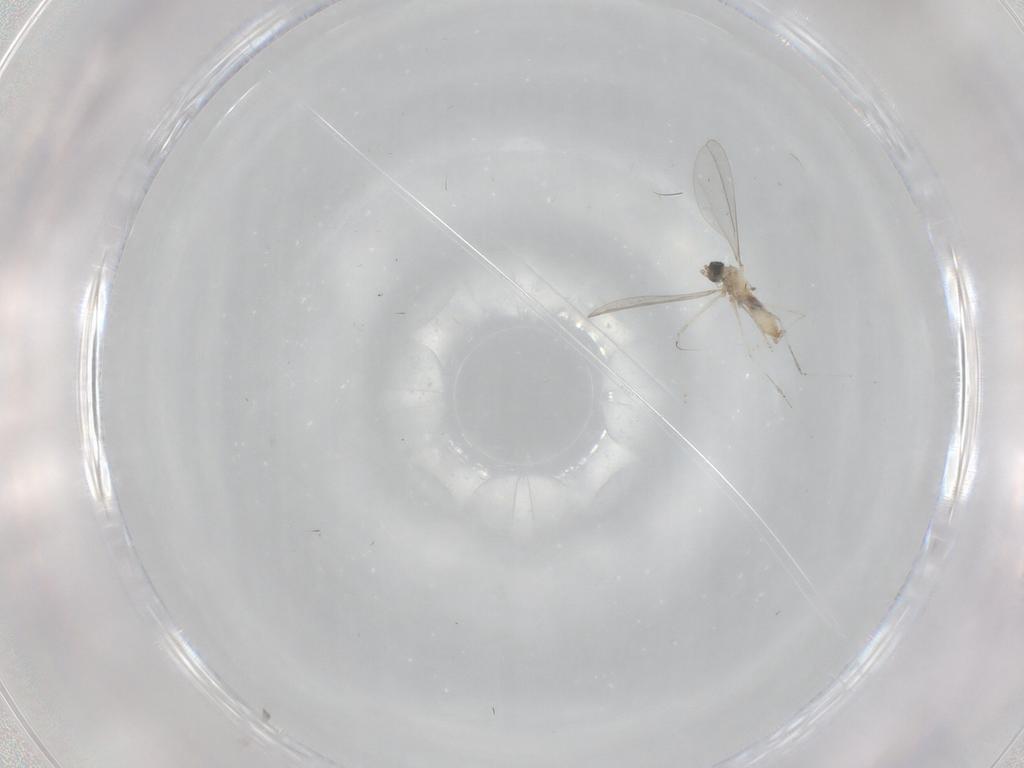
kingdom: Animalia
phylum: Arthropoda
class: Insecta
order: Diptera
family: Cecidomyiidae
